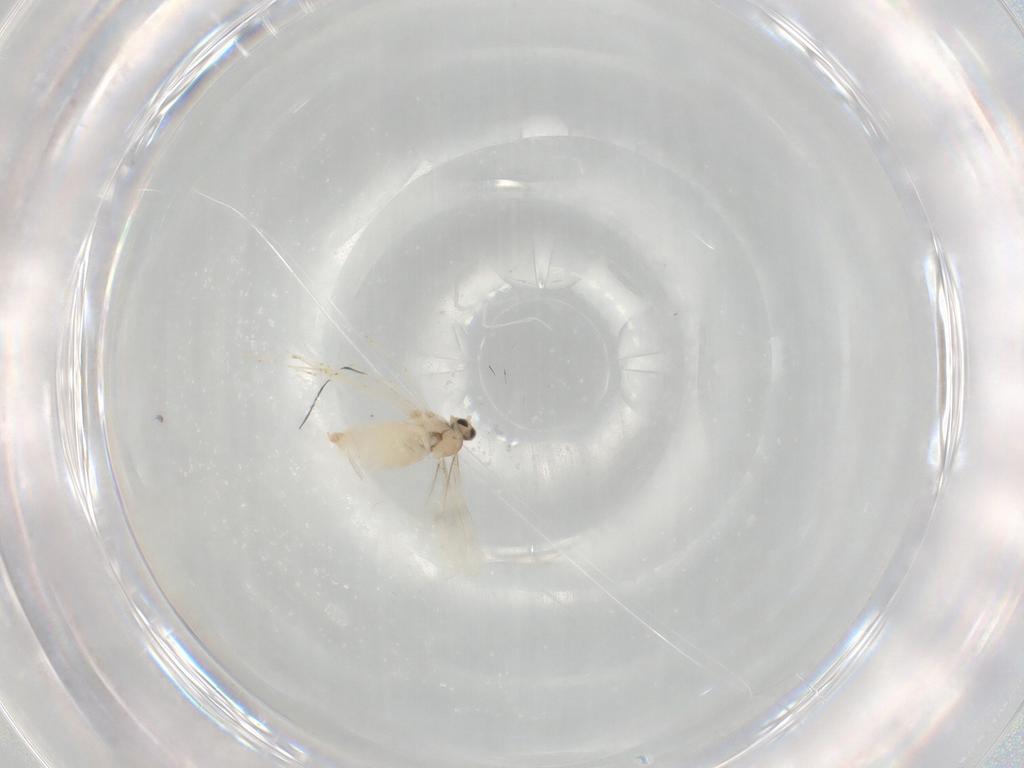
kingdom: Animalia
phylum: Arthropoda
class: Insecta
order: Diptera
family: Cecidomyiidae
